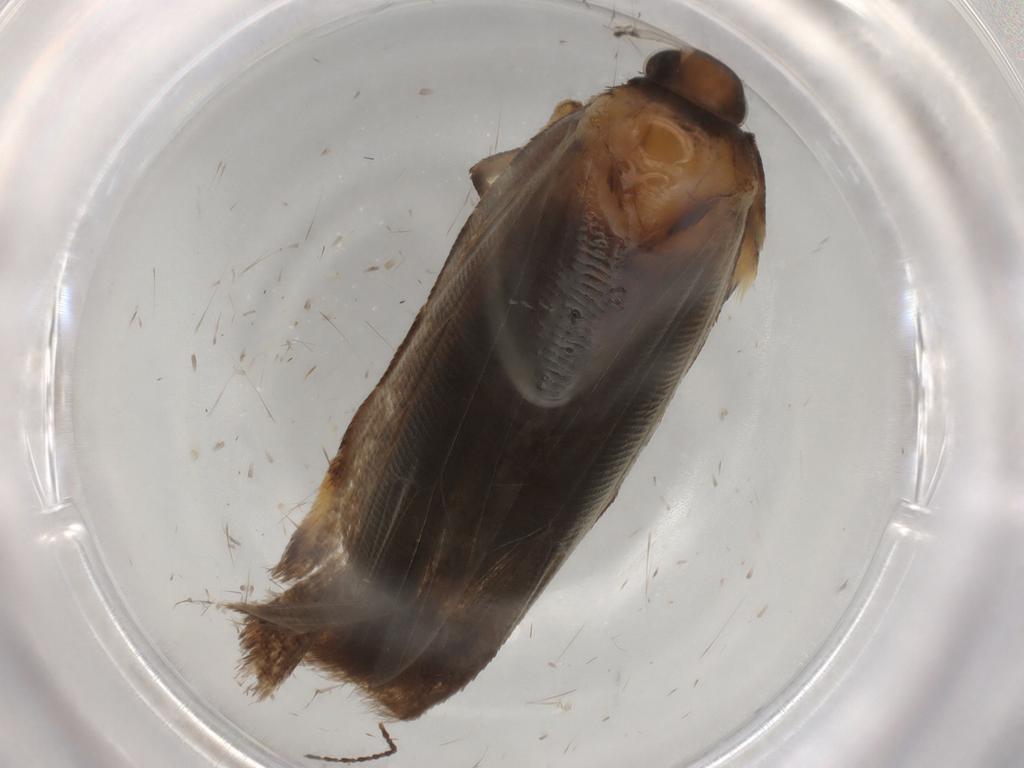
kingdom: Animalia
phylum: Arthropoda
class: Insecta
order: Lepidoptera
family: Gelechiidae
